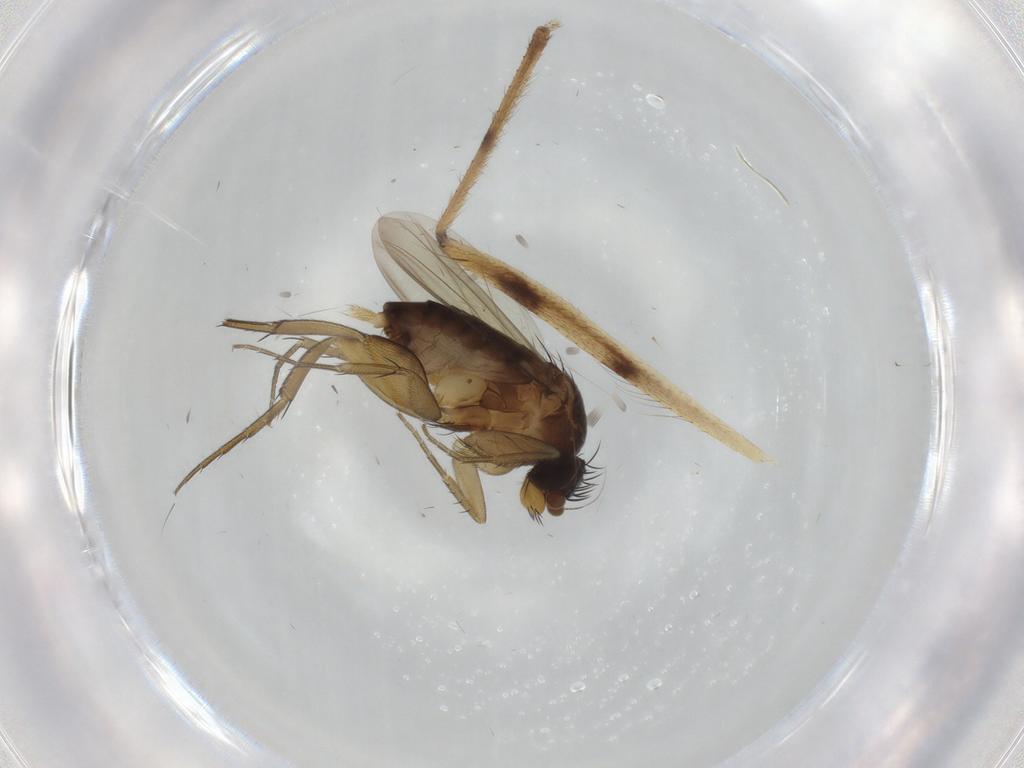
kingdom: Animalia
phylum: Arthropoda
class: Insecta
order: Diptera
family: Limoniidae
